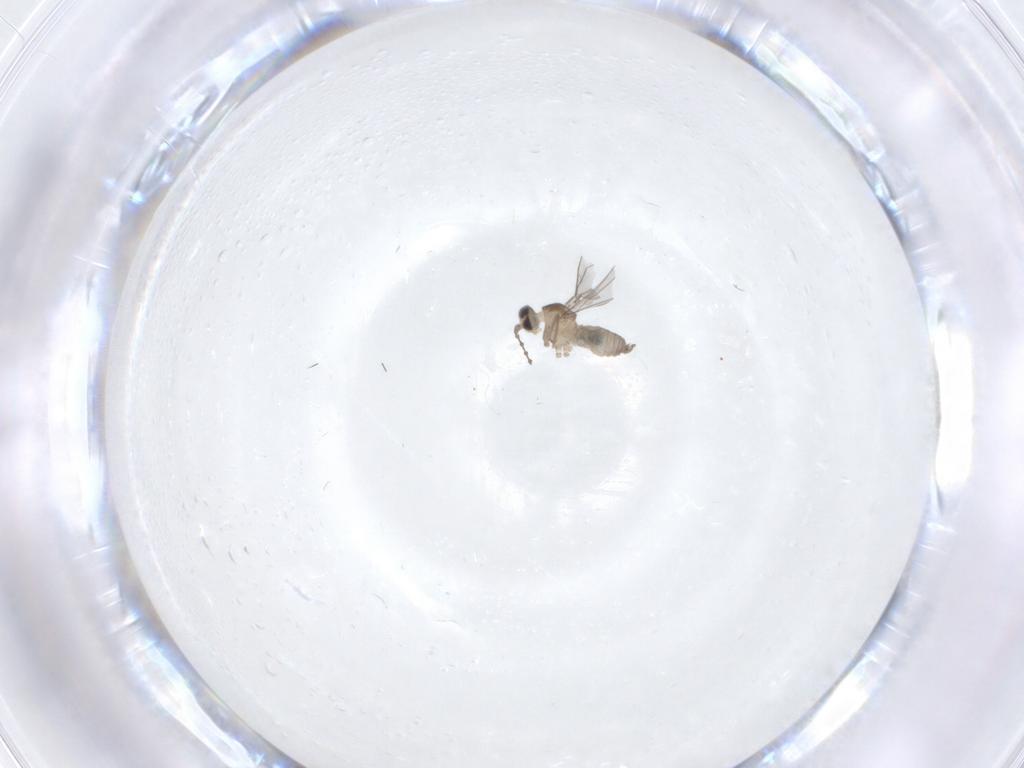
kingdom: Animalia
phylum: Arthropoda
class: Insecta
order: Diptera
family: Cecidomyiidae
